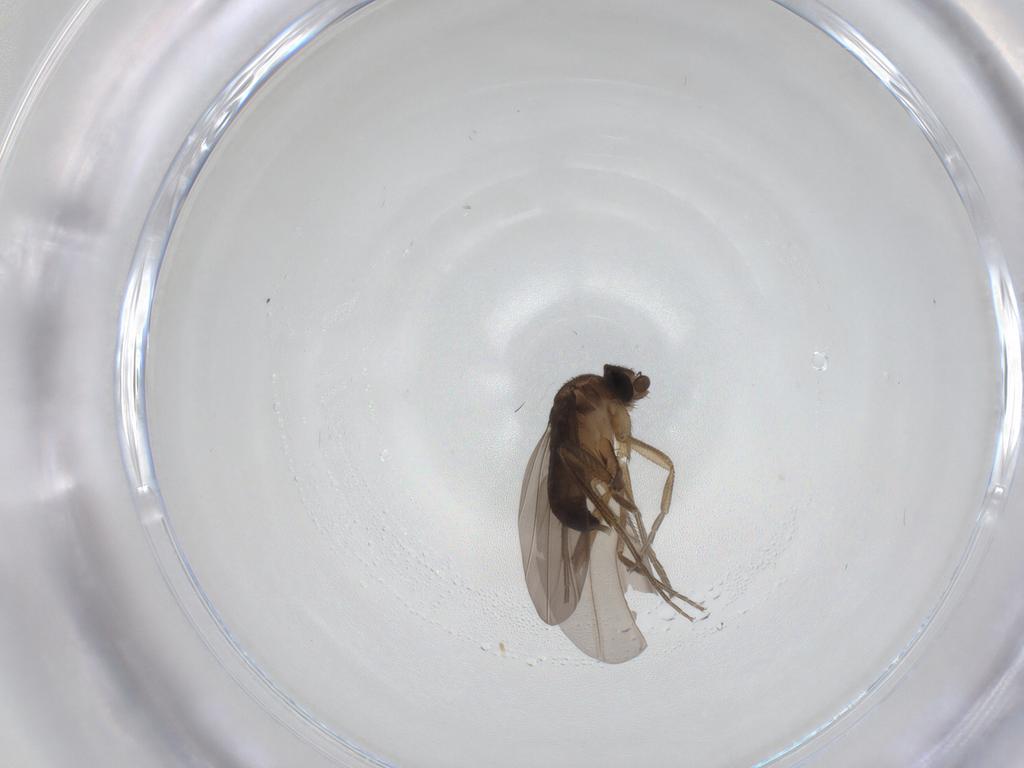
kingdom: Animalia
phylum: Arthropoda
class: Insecta
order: Diptera
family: Phoridae
